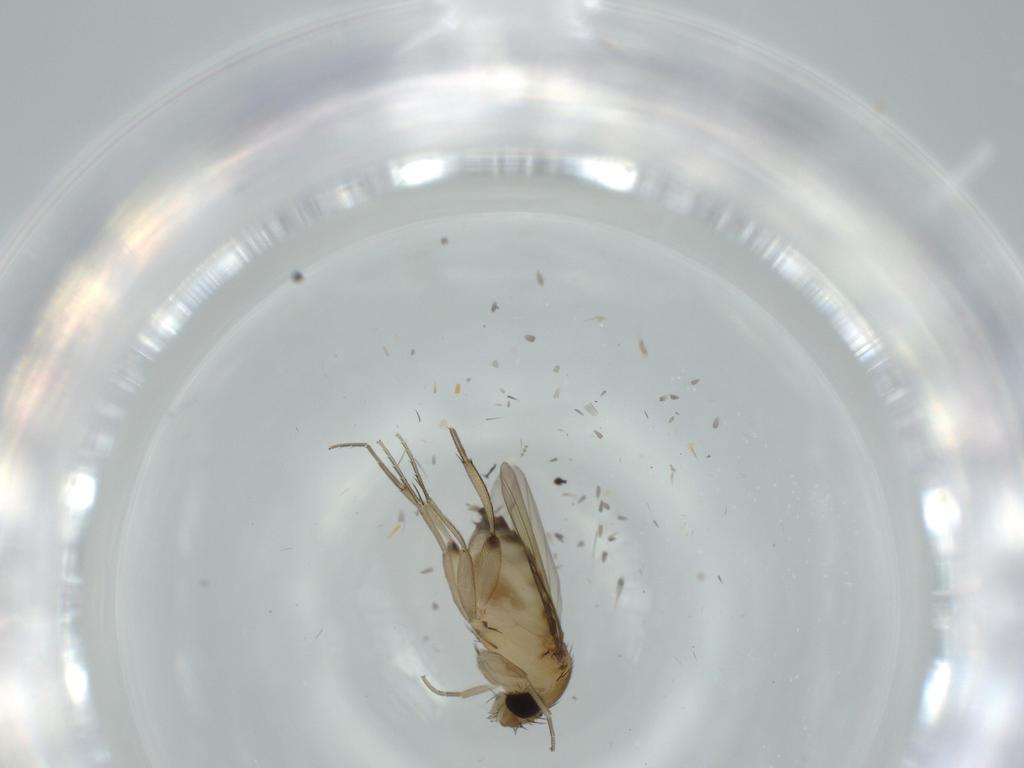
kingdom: Animalia
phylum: Arthropoda
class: Insecta
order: Diptera
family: Phoridae
